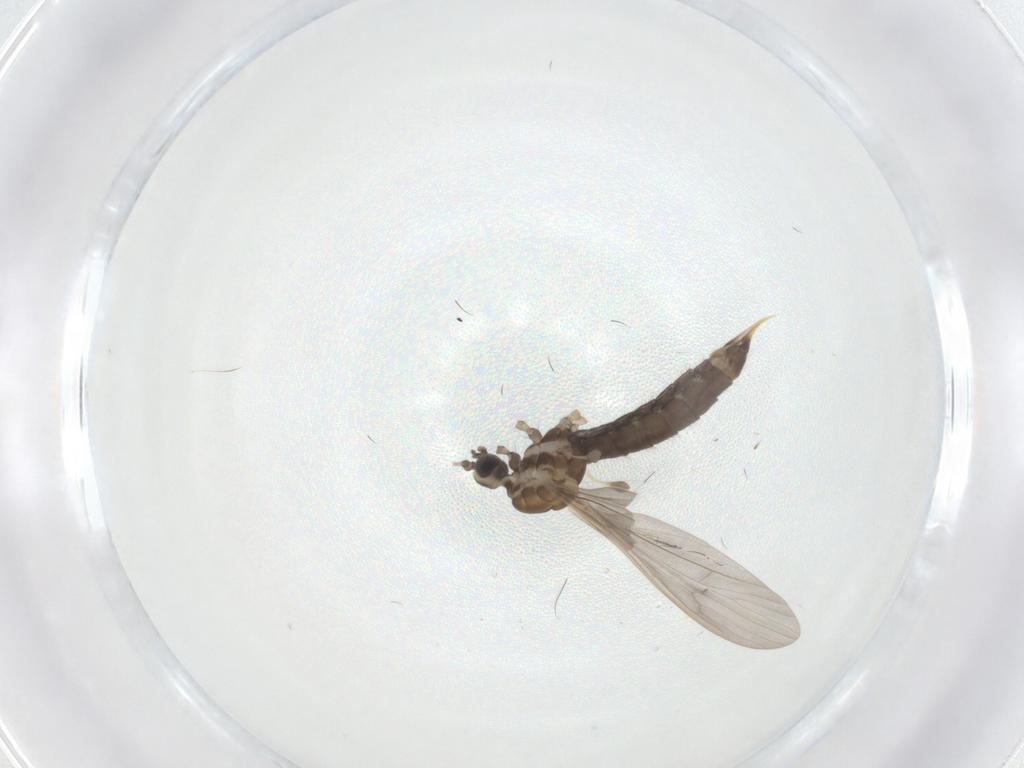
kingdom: Animalia
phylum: Arthropoda
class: Insecta
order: Diptera
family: Limoniidae
